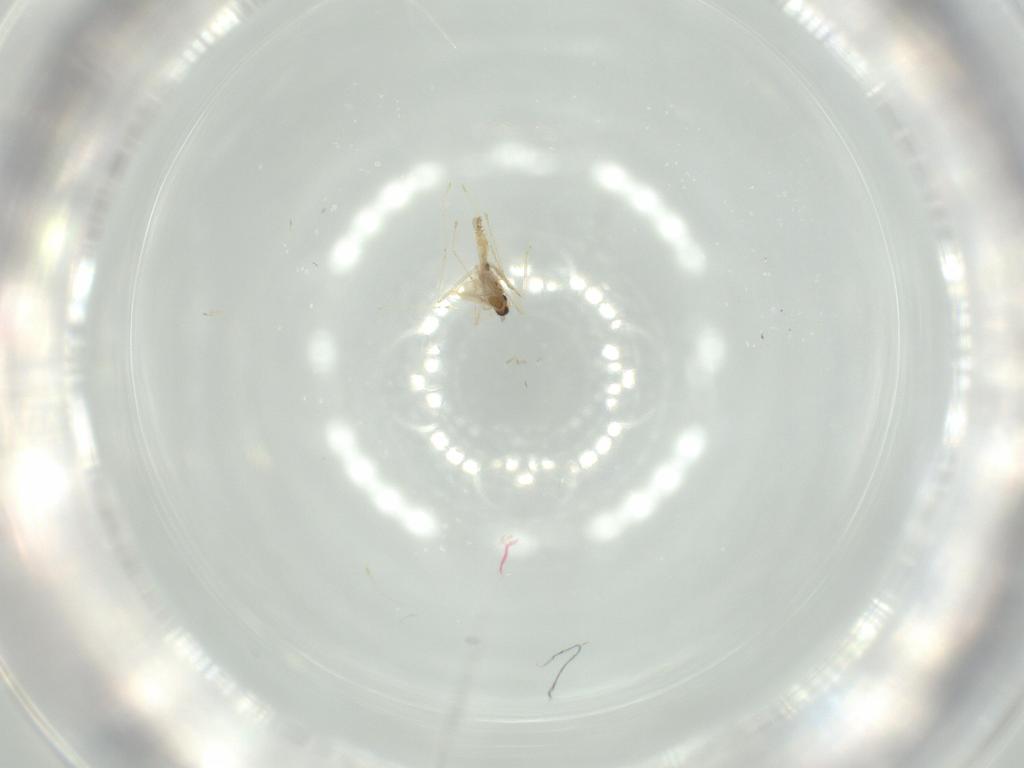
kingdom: Animalia
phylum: Arthropoda
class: Insecta
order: Diptera
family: Cecidomyiidae
